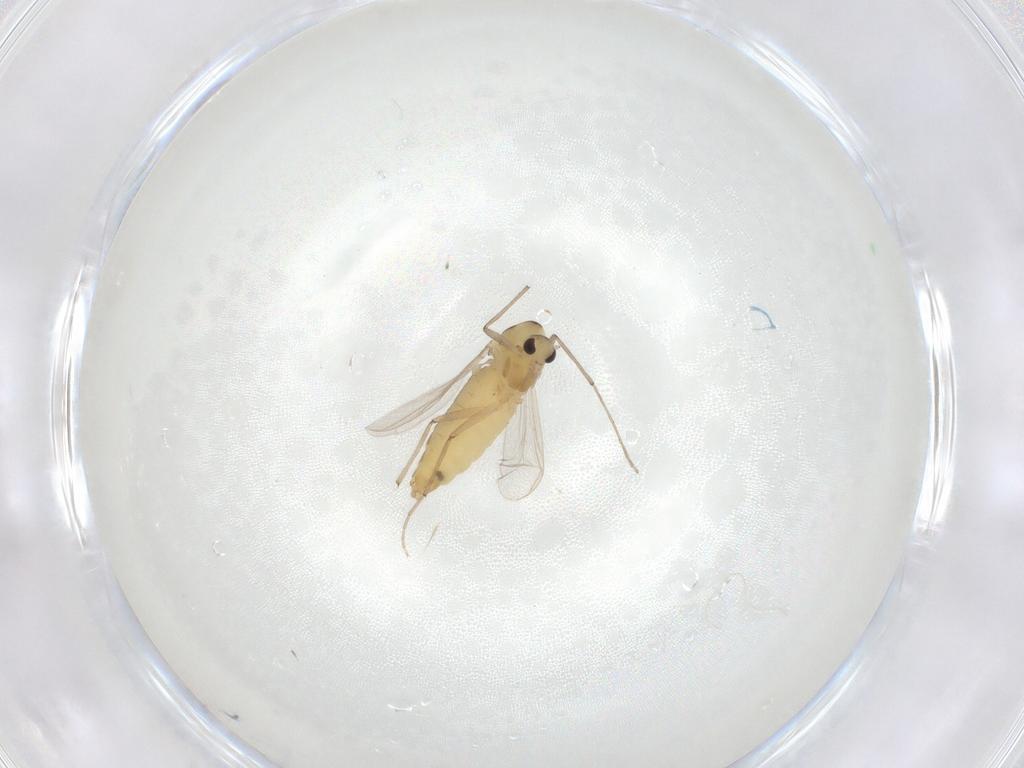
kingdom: Animalia
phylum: Arthropoda
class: Insecta
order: Diptera
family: Chironomidae
